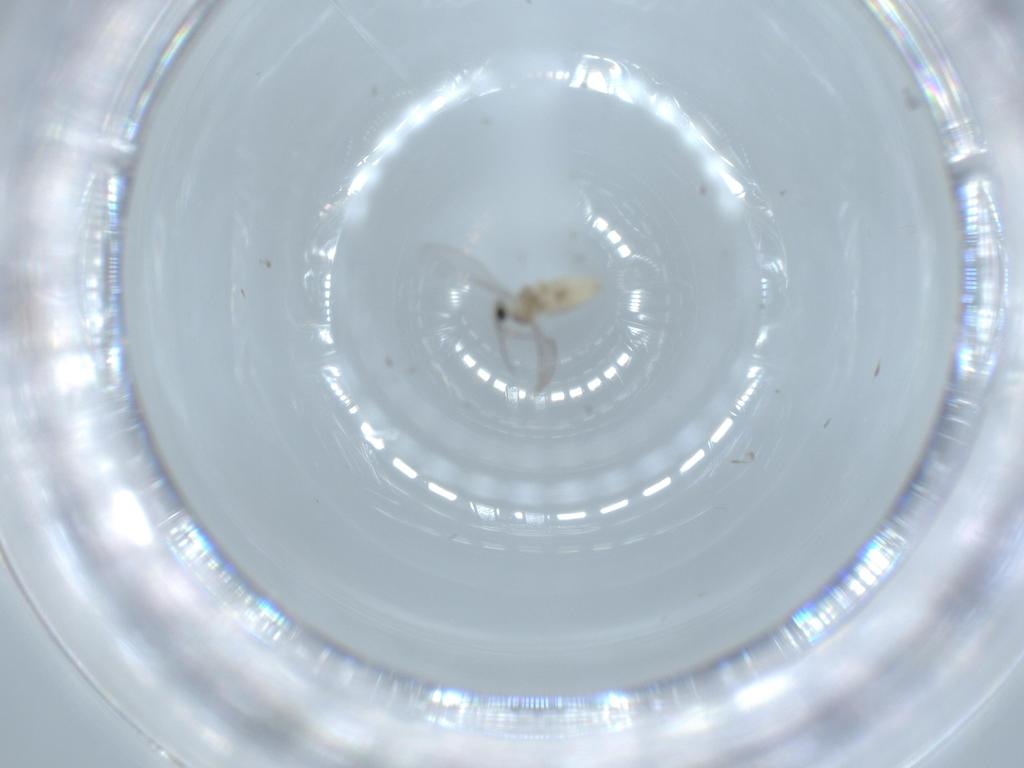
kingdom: Animalia
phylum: Arthropoda
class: Insecta
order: Diptera
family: Cecidomyiidae
